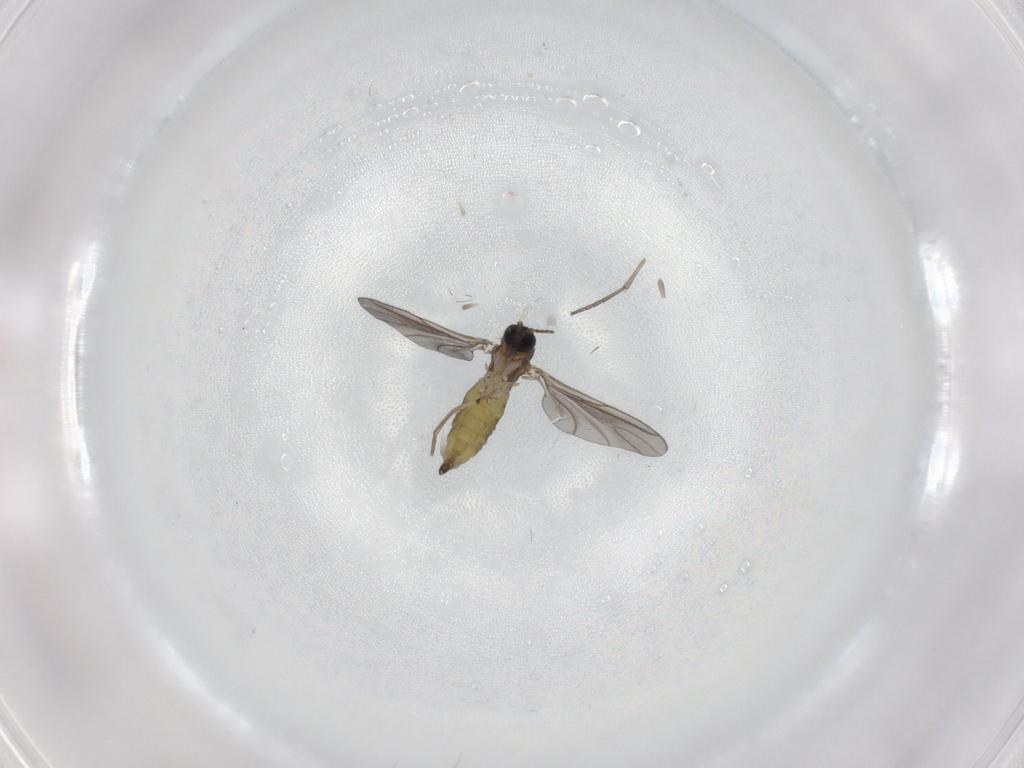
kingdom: Animalia
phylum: Arthropoda
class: Insecta
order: Diptera
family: Sciaridae
